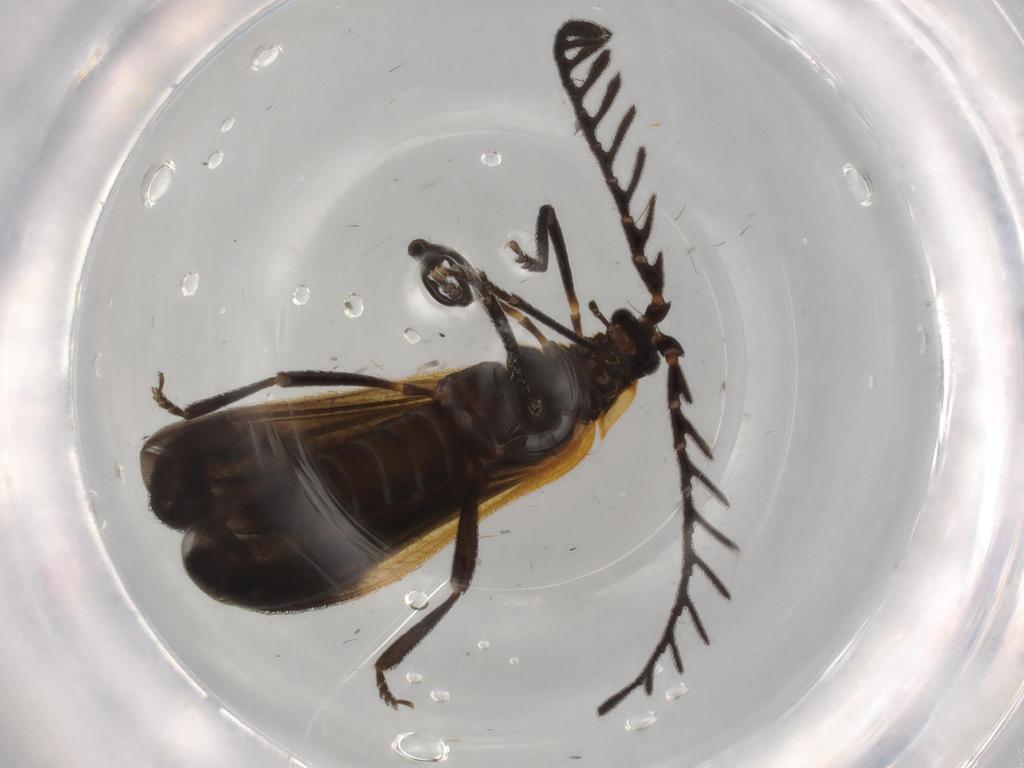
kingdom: Animalia
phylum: Arthropoda
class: Insecta
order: Coleoptera
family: Lycidae
